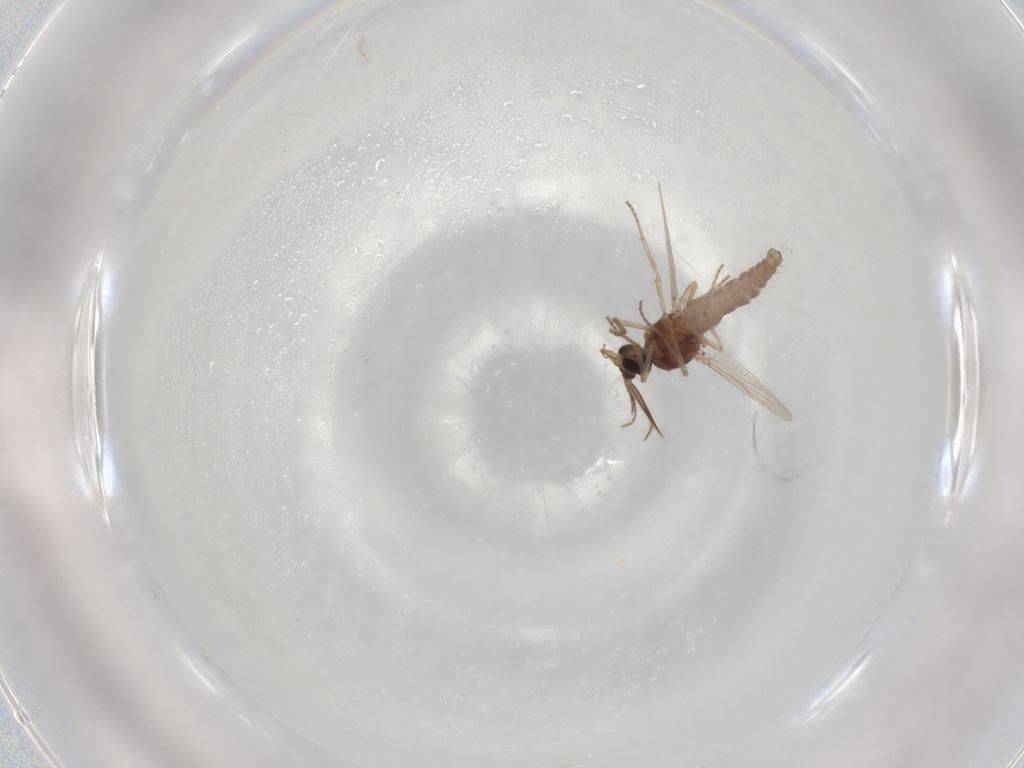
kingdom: Animalia
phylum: Arthropoda
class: Insecta
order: Diptera
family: Ceratopogonidae
